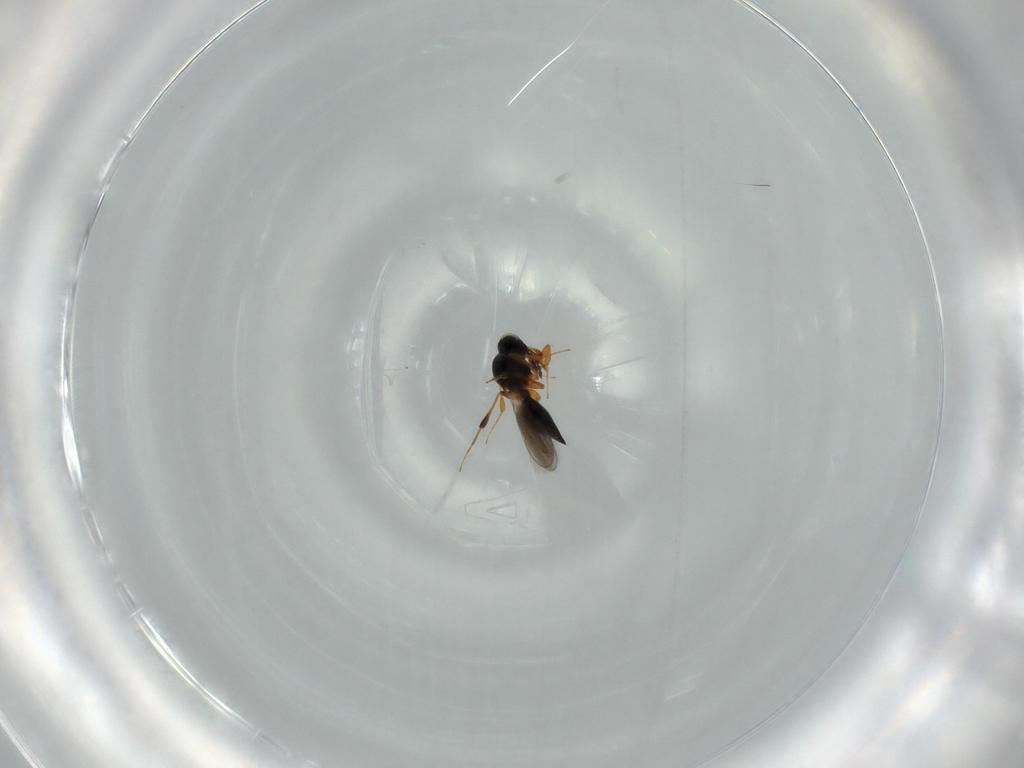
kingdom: Animalia
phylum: Arthropoda
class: Insecta
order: Hymenoptera
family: Platygastridae
